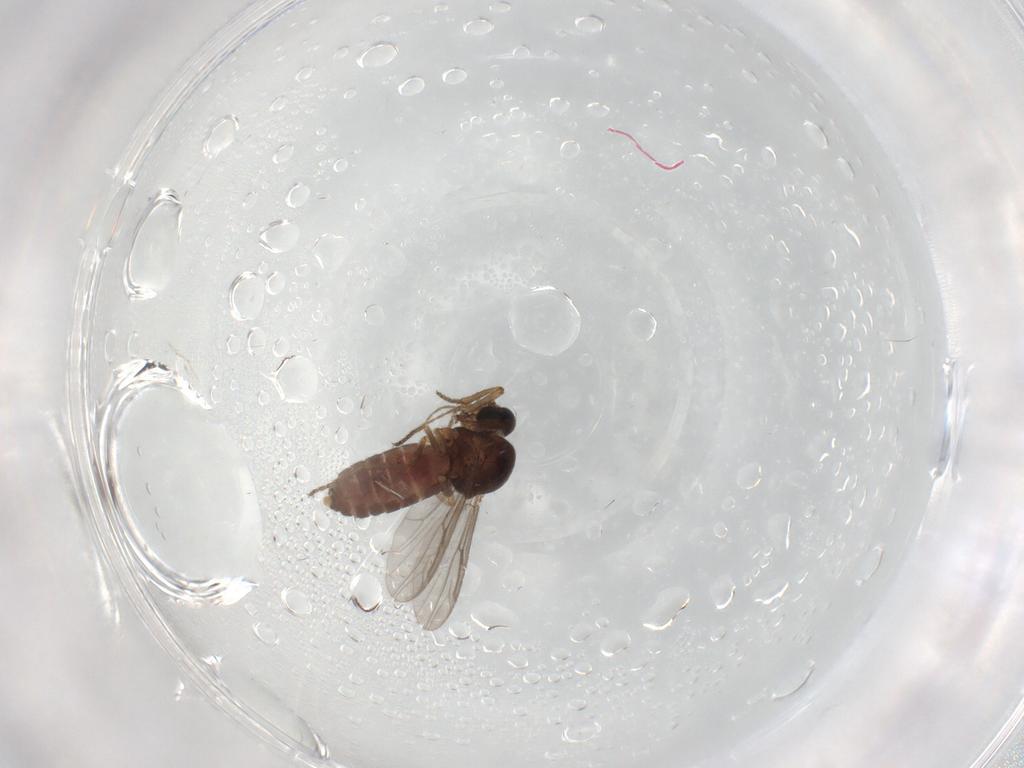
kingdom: Animalia
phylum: Arthropoda
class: Insecta
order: Diptera
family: Ceratopogonidae
